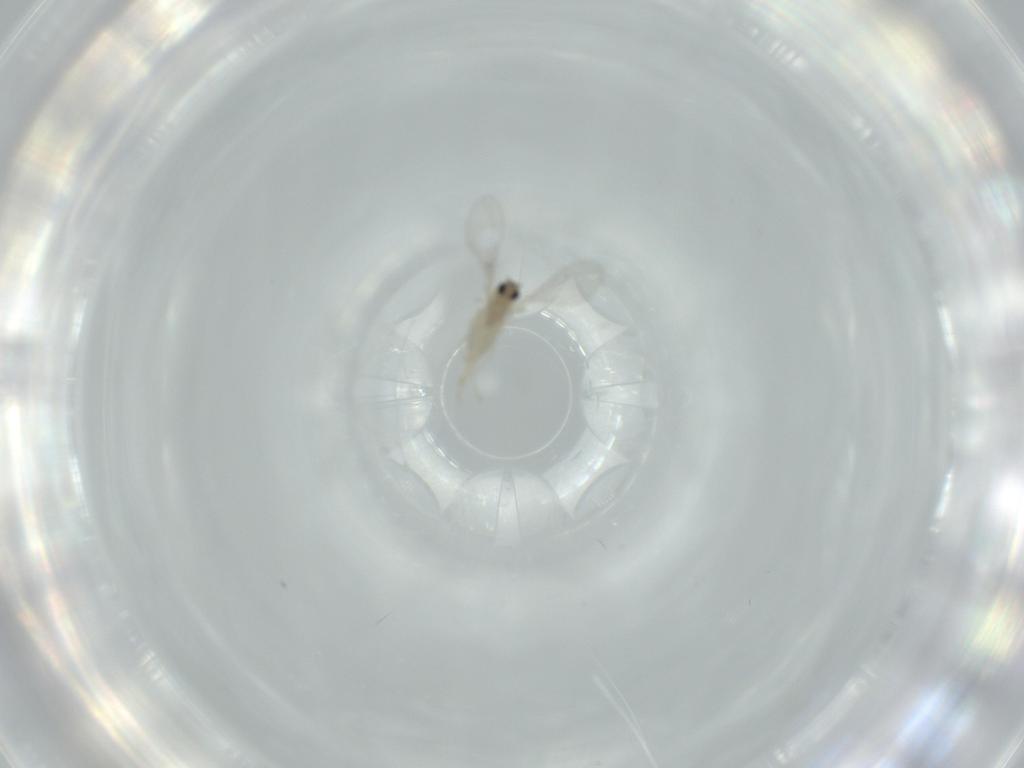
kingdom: Animalia
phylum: Arthropoda
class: Insecta
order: Diptera
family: Cecidomyiidae
